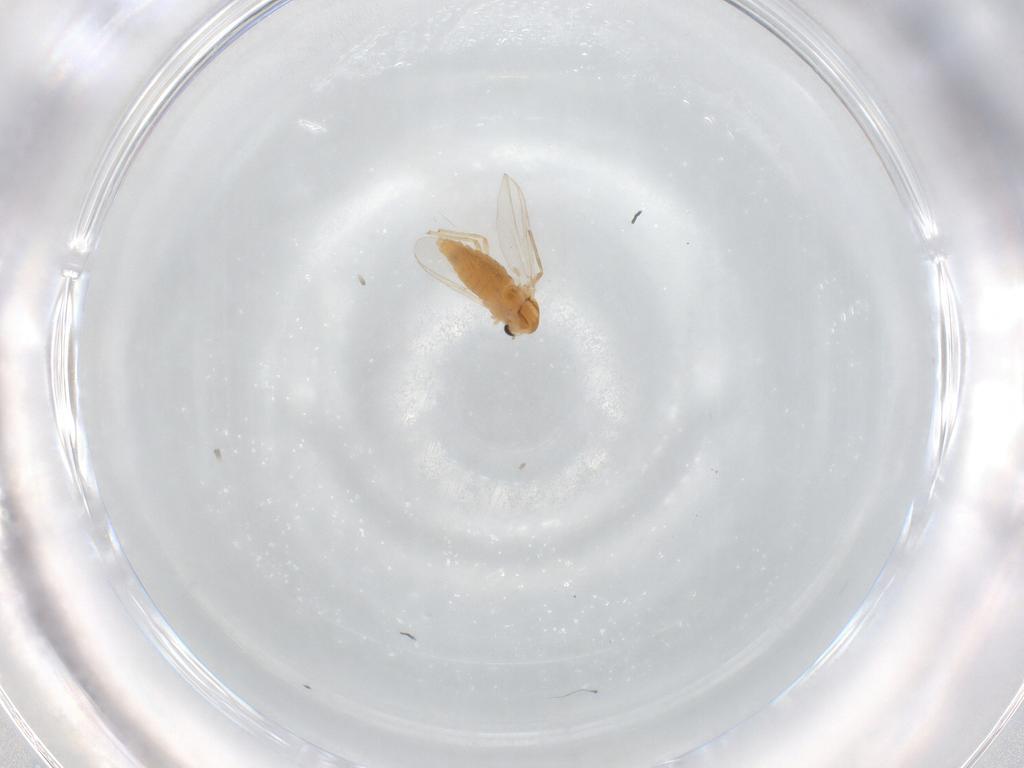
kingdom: Animalia
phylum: Arthropoda
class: Insecta
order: Diptera
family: Chironomidae
